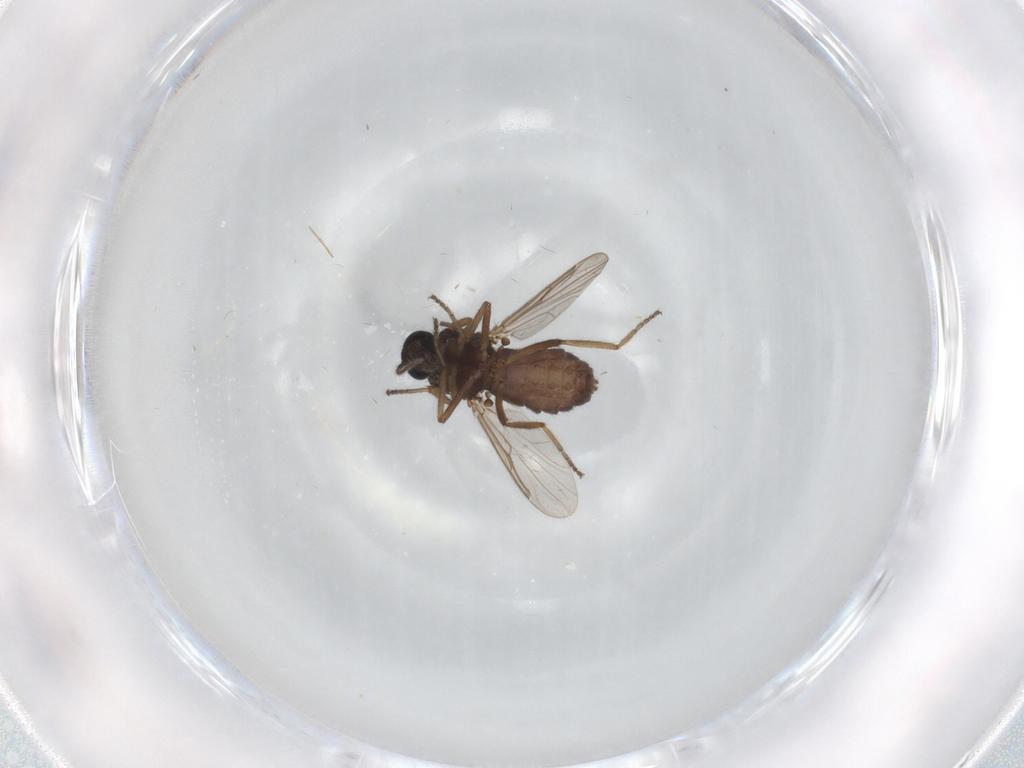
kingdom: Animalia
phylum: Arthropoda
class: Insecta
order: Diptera
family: Ceratopogonidae
